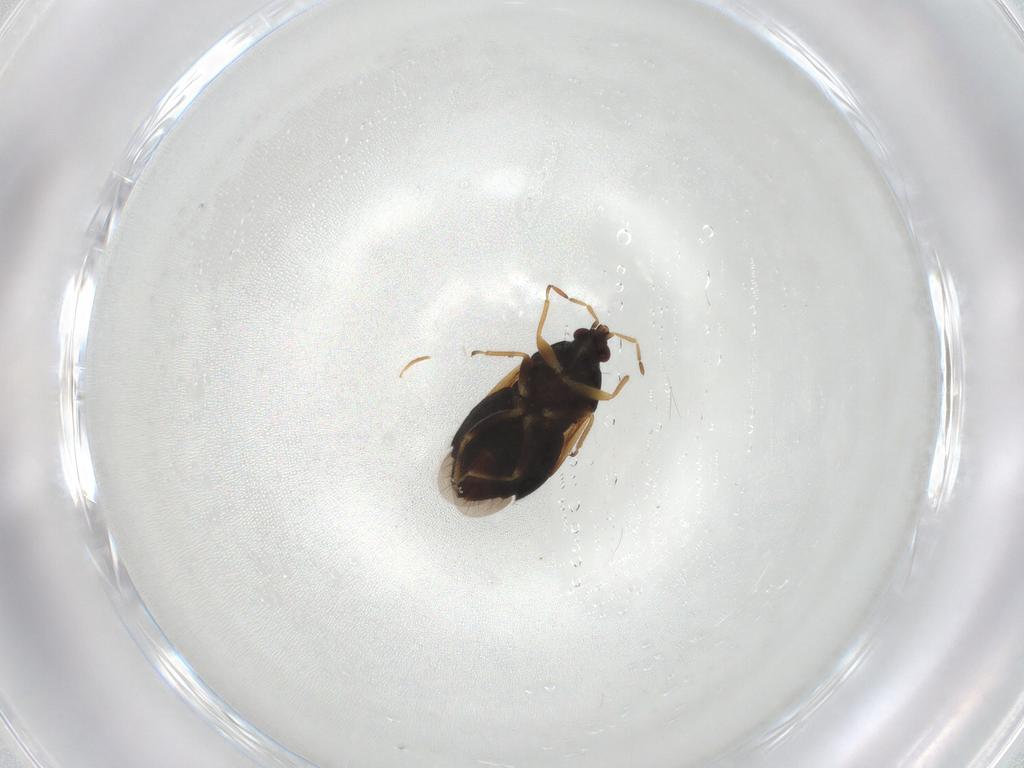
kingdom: Animalia
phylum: Arthropoda
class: Insecta
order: Hemiptera
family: Anthocoridae
